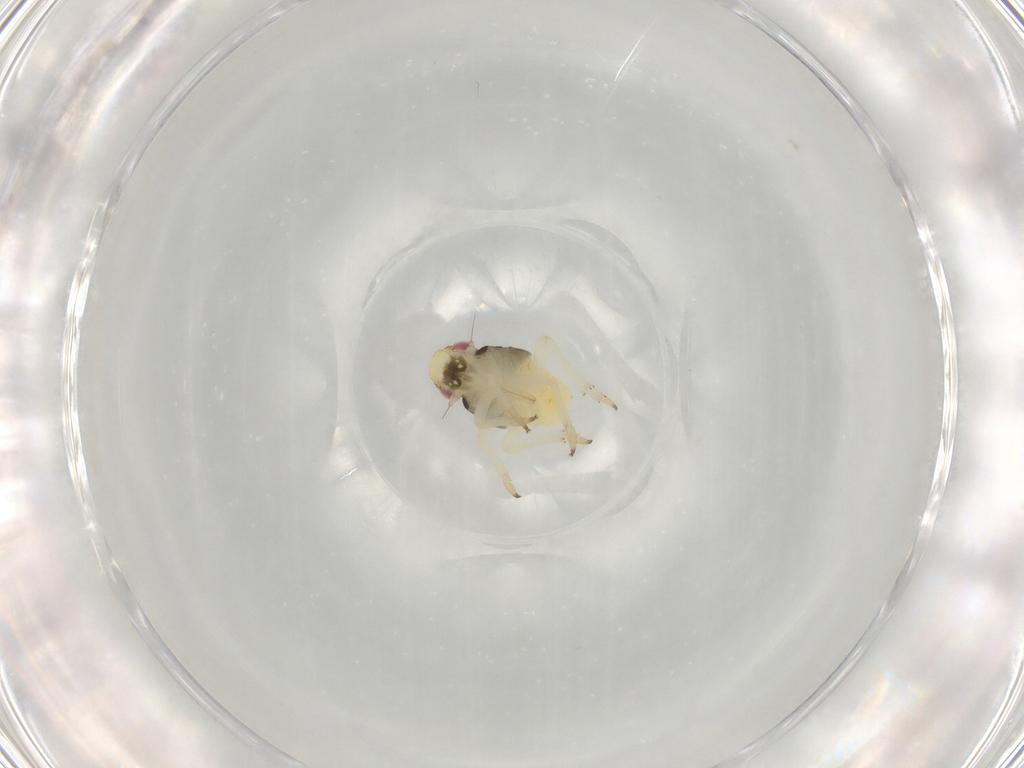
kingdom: Animalia
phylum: Arthropoda
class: Insecta
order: Hemiptera
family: Caliscelidae
